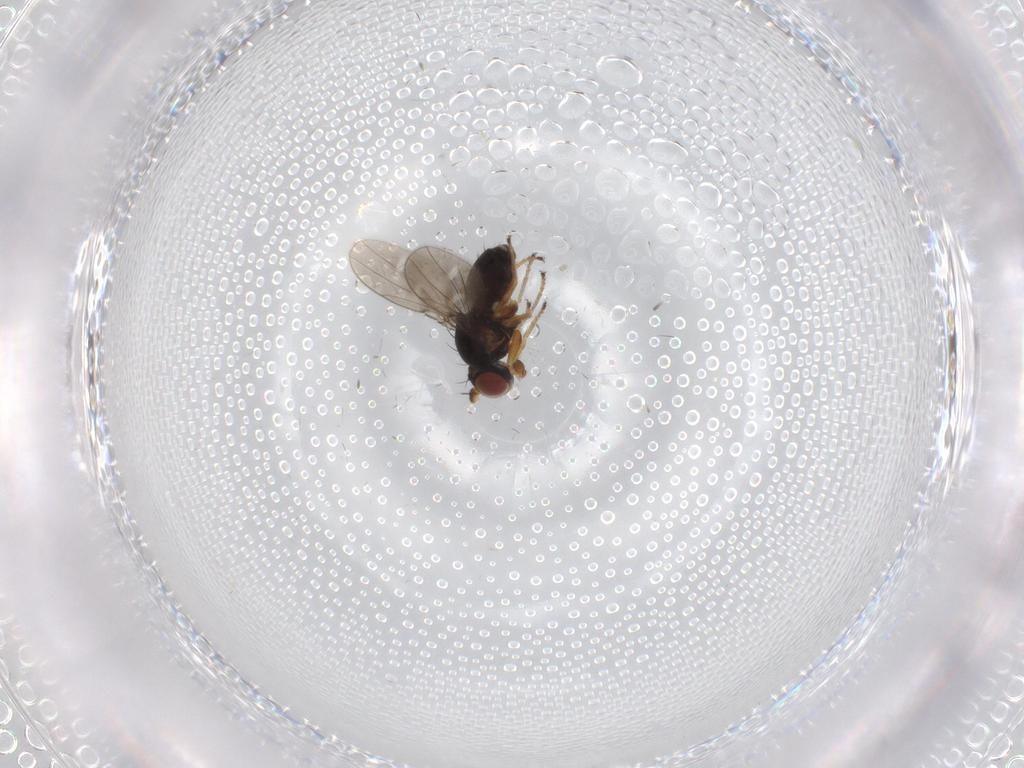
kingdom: Animalia
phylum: Arthropoda
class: Insecta
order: Diptera
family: Ephydridae
